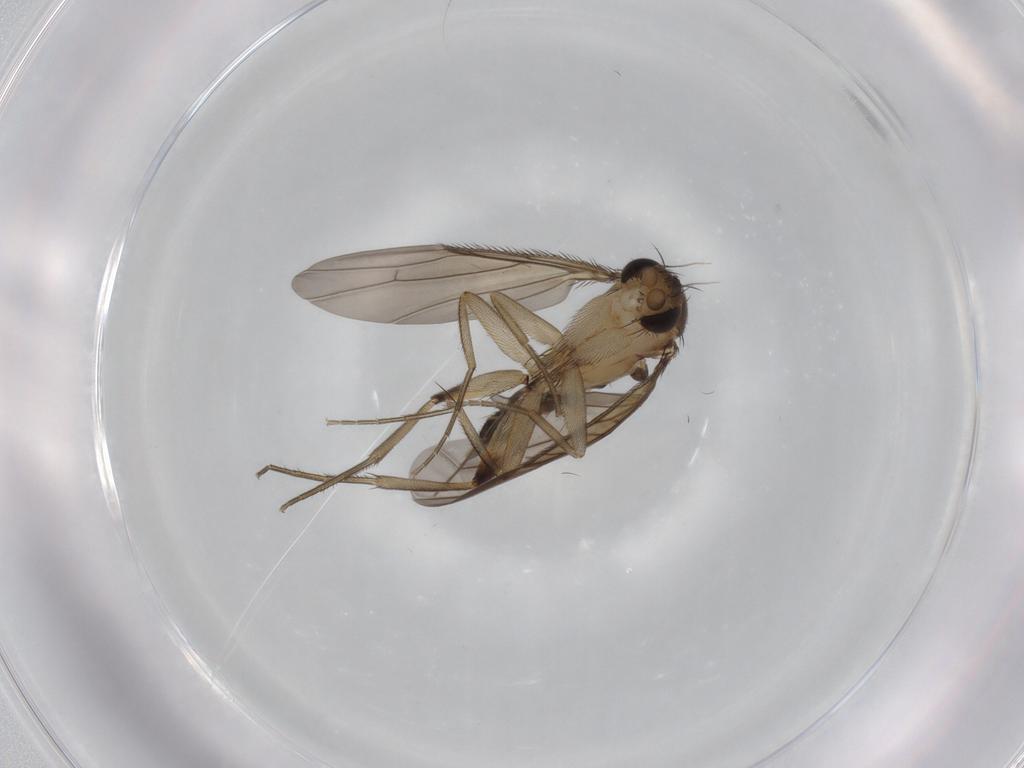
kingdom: Animalia
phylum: Arthropoda
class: Insecta
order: Diptera
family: Phoridae
